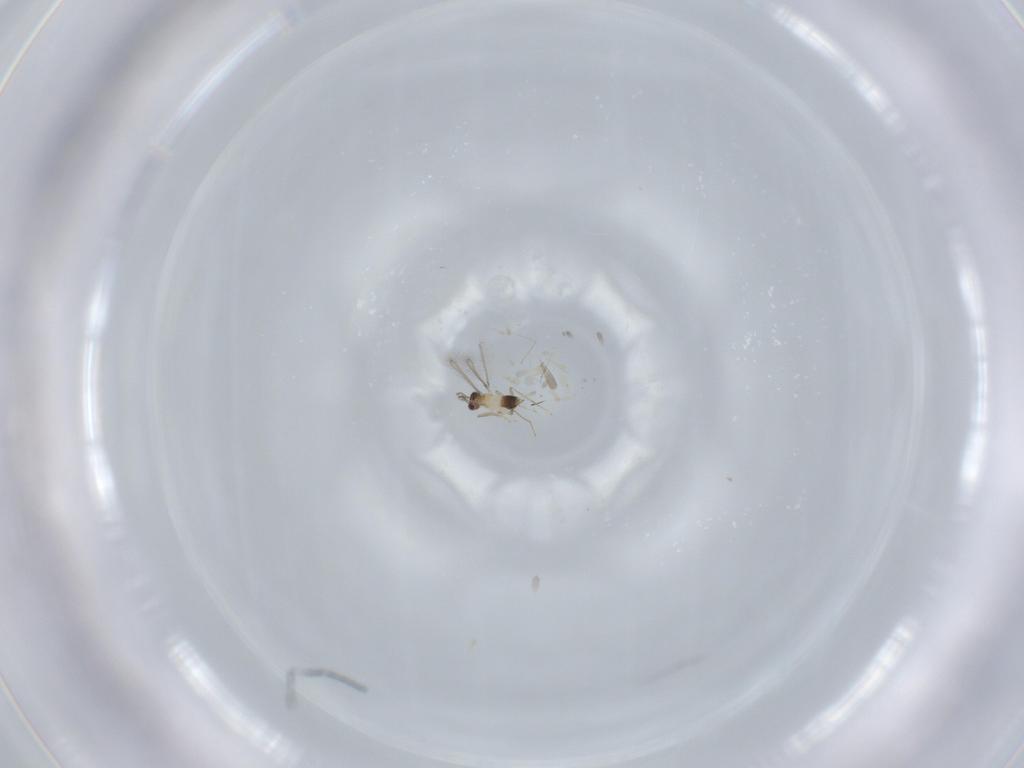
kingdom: Animalia
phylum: Arthropoda
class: Insecta
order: Hymenoptera
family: Mymaridae
